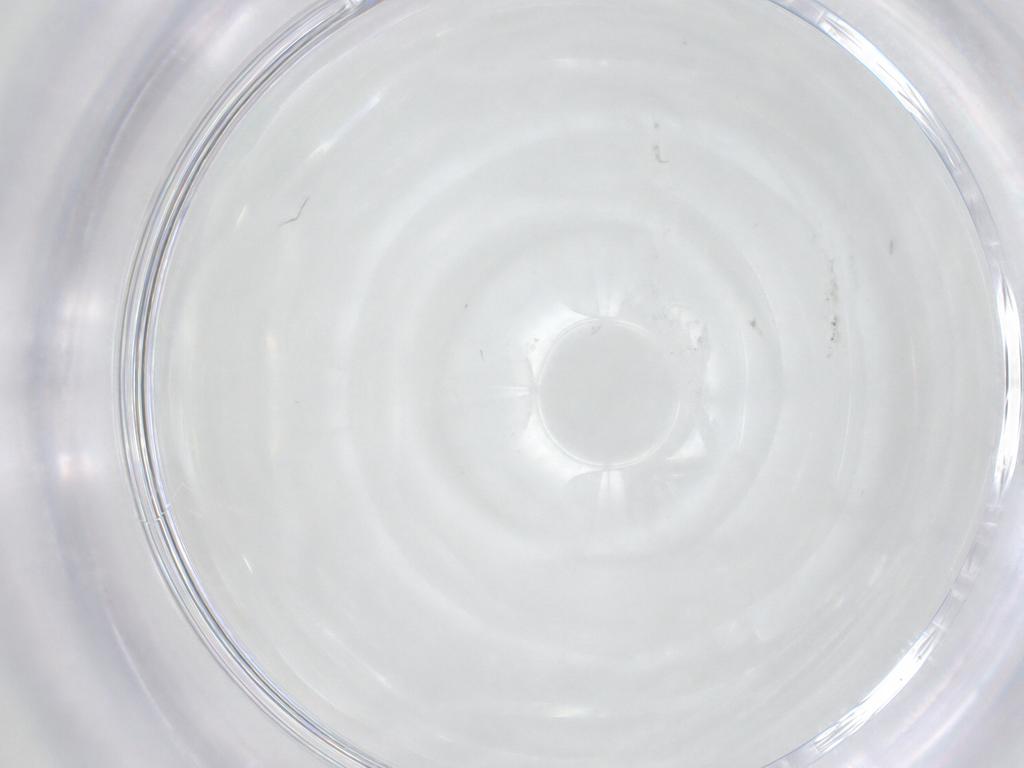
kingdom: Animalia
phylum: Arthropoda
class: Insecta
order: Diptera
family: Chironomidae
